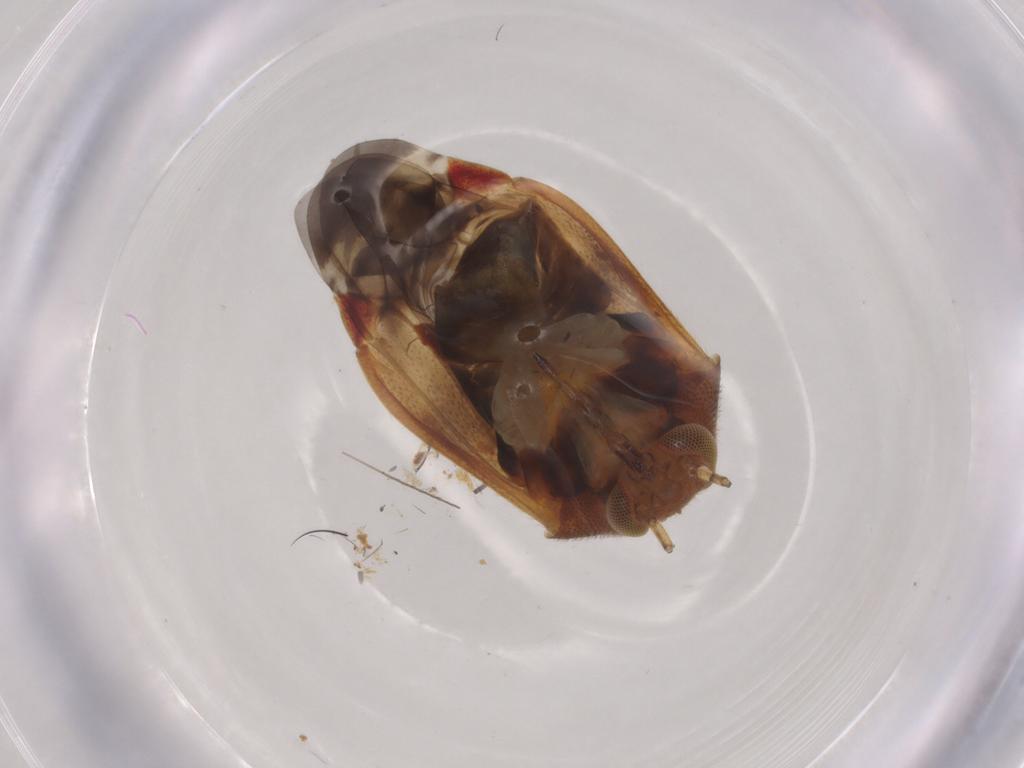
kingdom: Animalia
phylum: Arthropoda
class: Insecta
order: Hemiptera
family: Miridae
